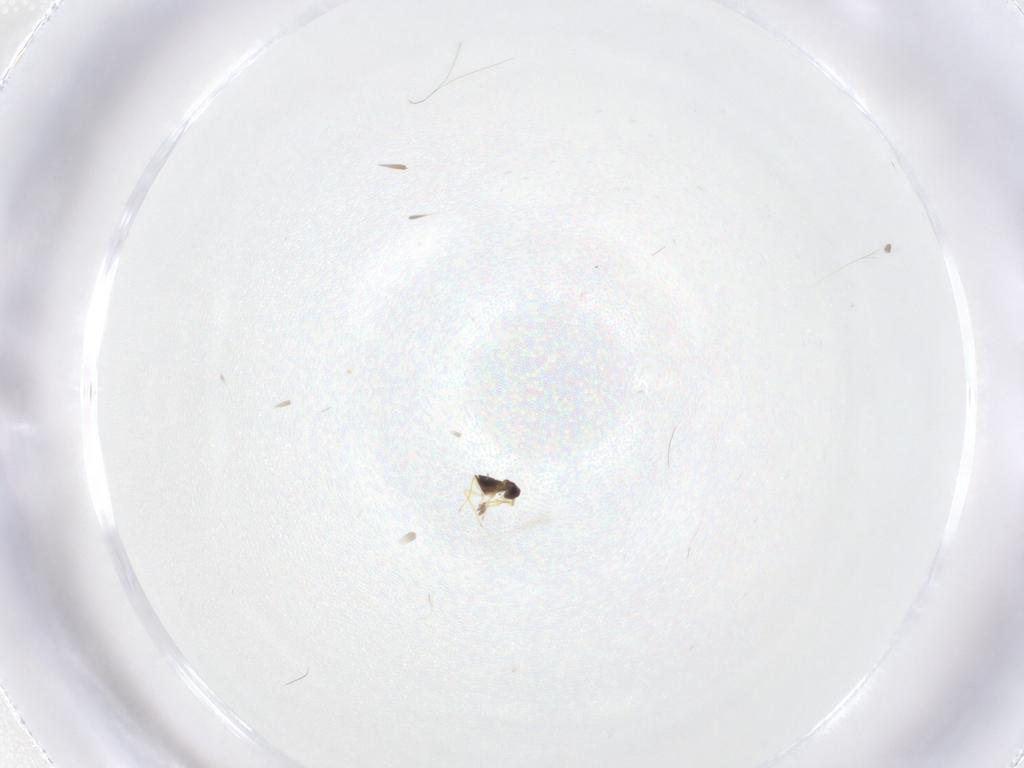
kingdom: Animalia
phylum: Arthropoda
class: Insecta
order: Hymenoptera
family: Mymaridae
